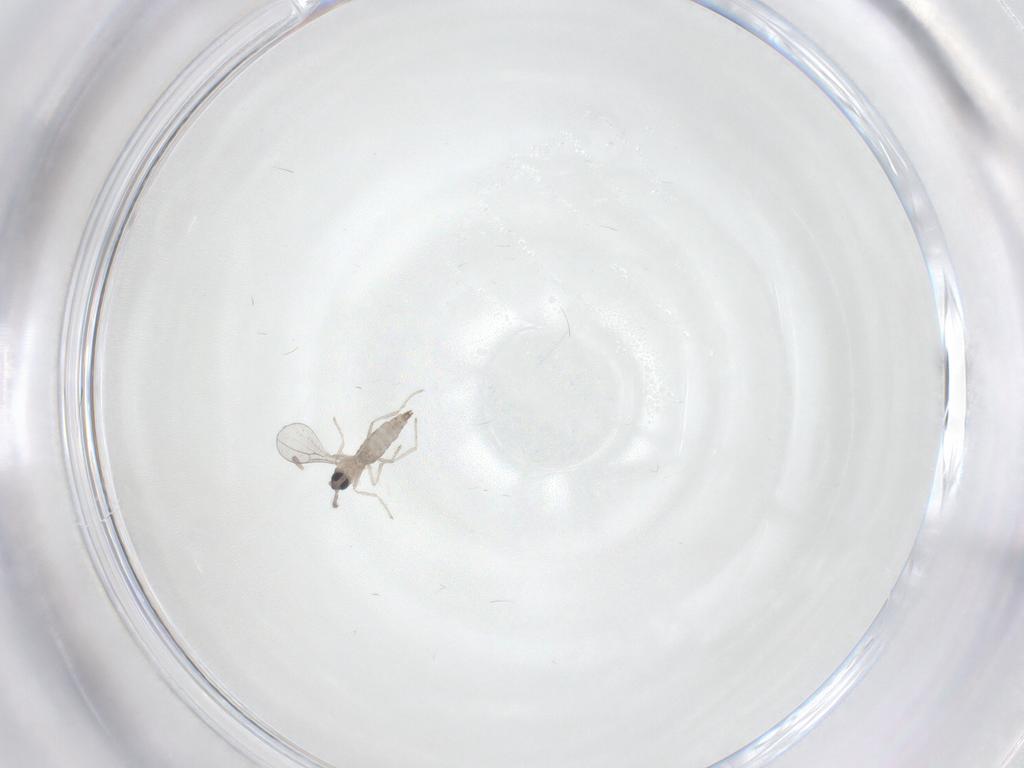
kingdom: Animalia
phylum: Arthropoda
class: Insecta
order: Diptera
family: Cecidomyiidae
